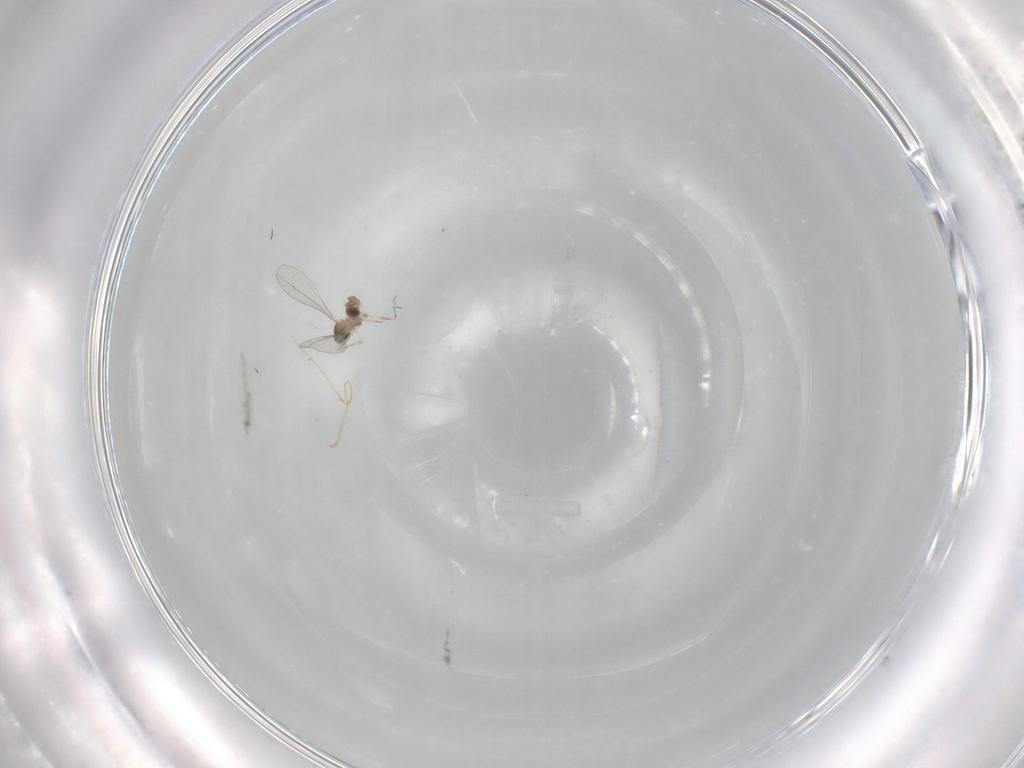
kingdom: Animalia
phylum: Arthropoda
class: Insecta
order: Diptera
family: Cecidomyiidae
